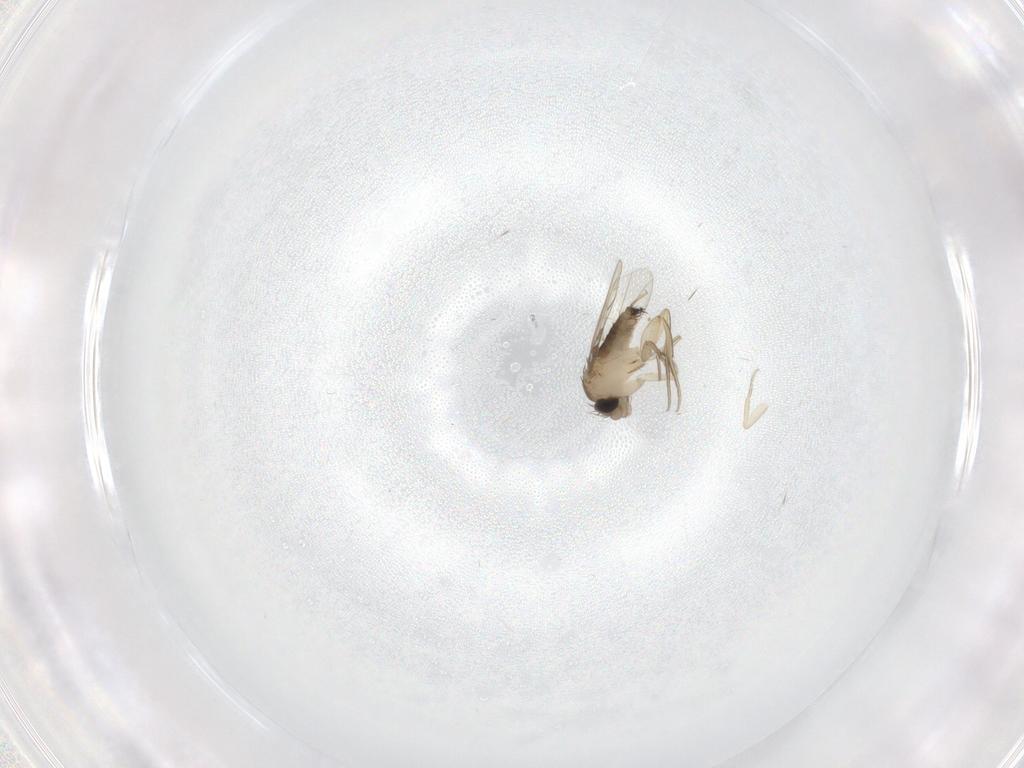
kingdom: Animalia
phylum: Arthropoda
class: Insecta
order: Diptera
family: Phoridae
